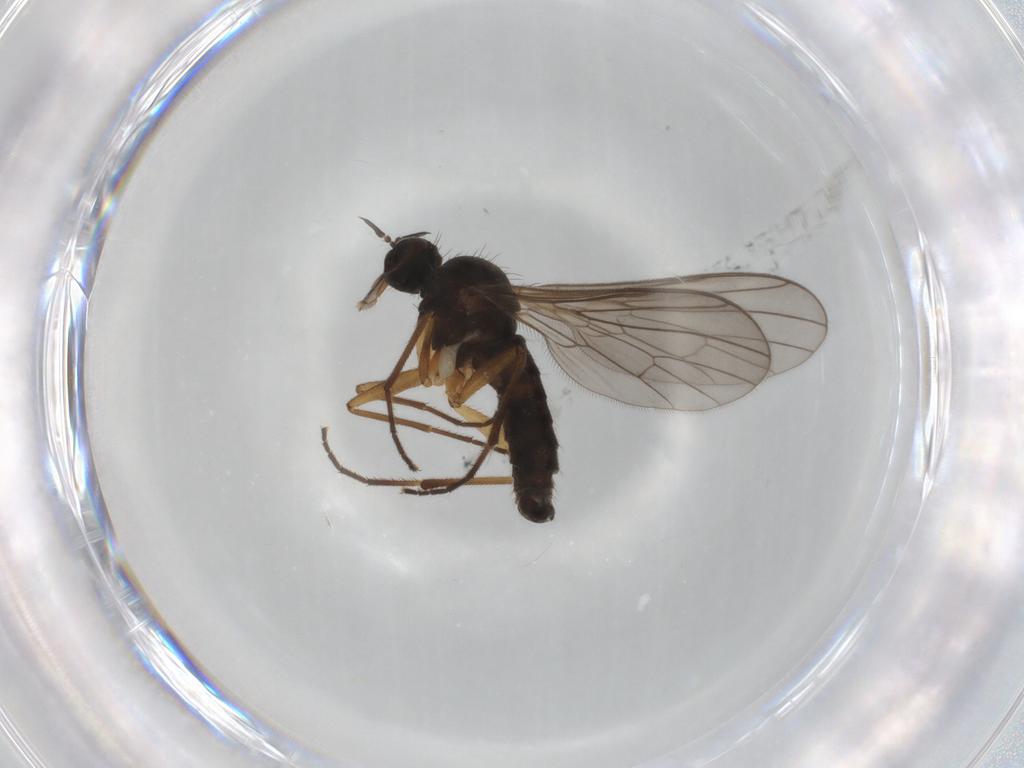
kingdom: Animalia
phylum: Arthropoda
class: Insecta
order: Diptera
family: Empididae
